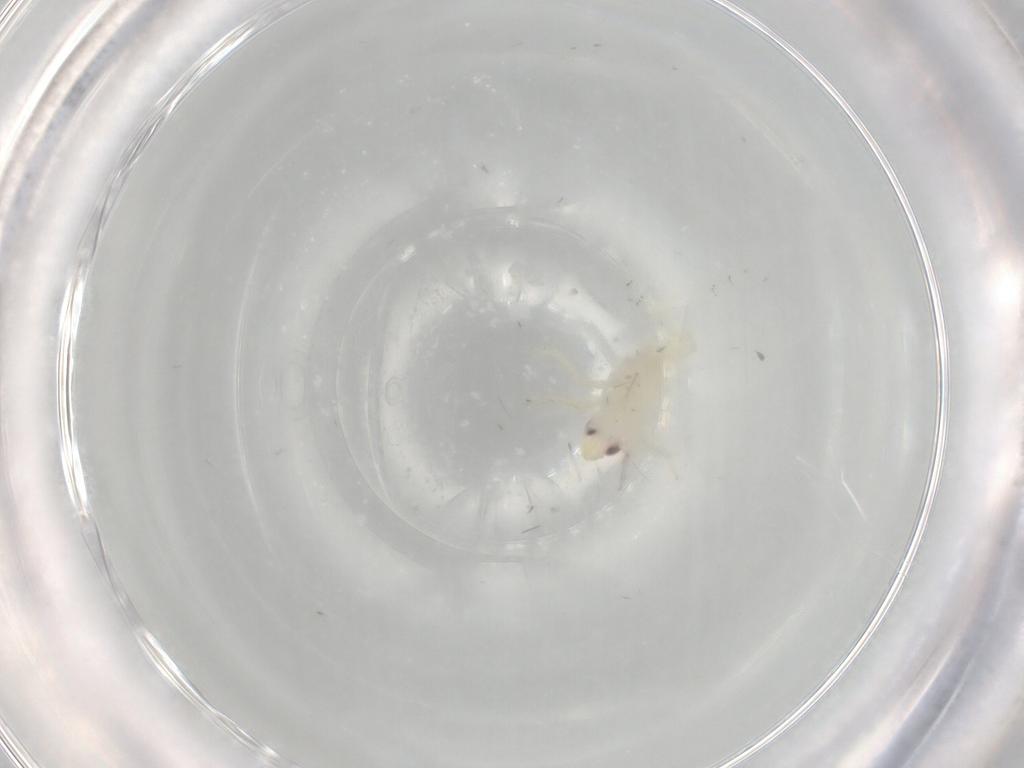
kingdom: Animalia
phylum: Arthropoda
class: Insecta
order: Hemiptera
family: Tropiduchidae
